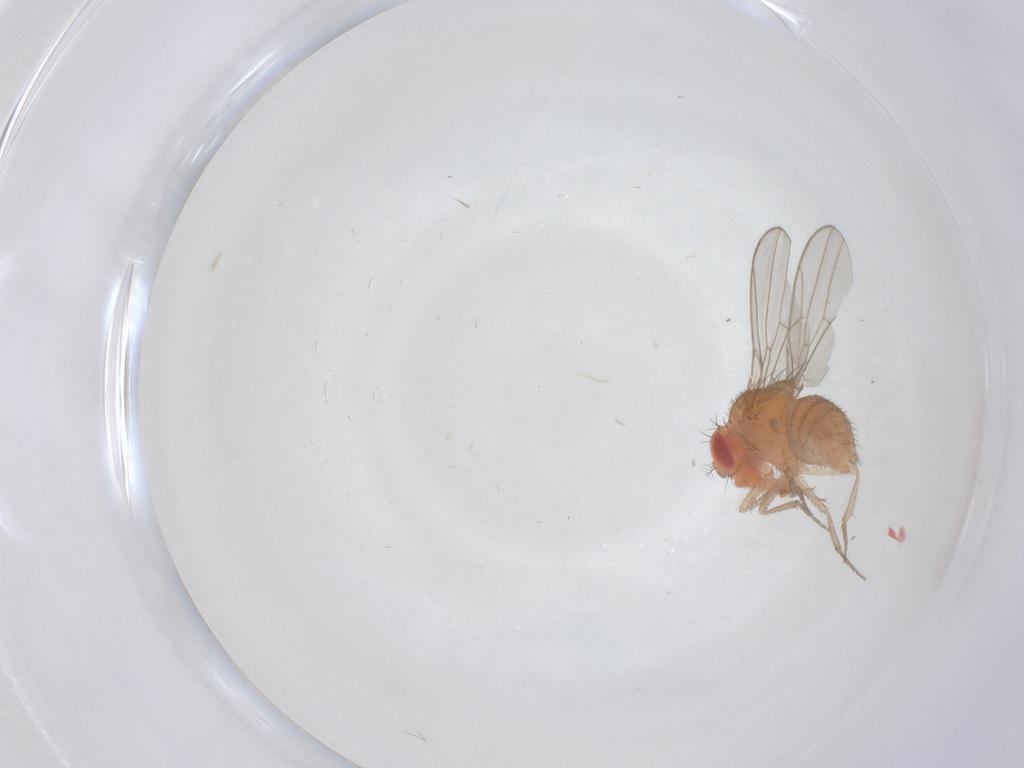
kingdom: Animalia
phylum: Arthropoda
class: Insecta
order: Diptera
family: Drosophilidae
